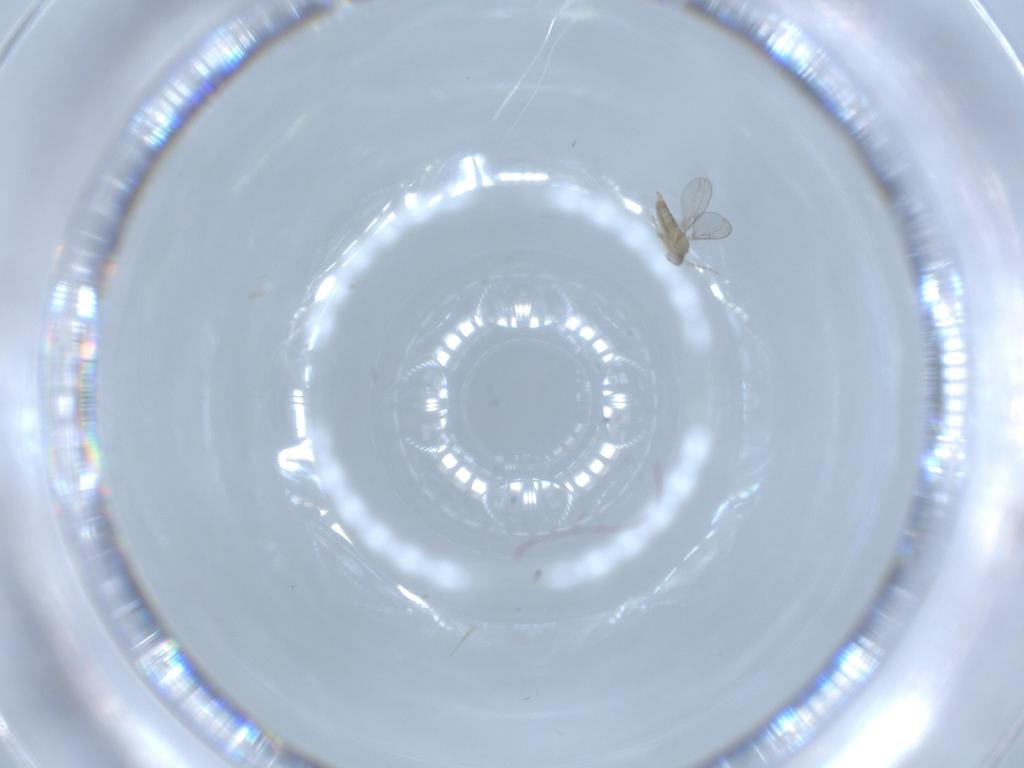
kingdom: Animalia
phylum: Arthropoda
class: Insecta
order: Diptera
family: Cecidomyiidae
